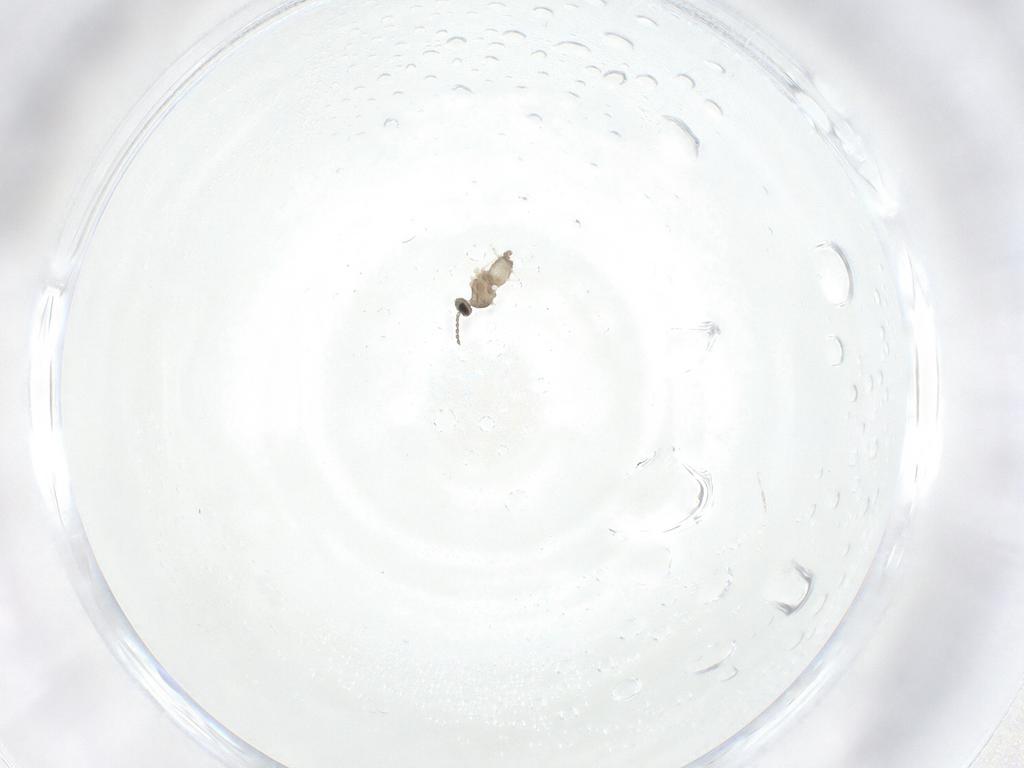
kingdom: Animalia
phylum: Arthropoda
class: Insecta
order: Diptera
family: Cecidomyiidae
